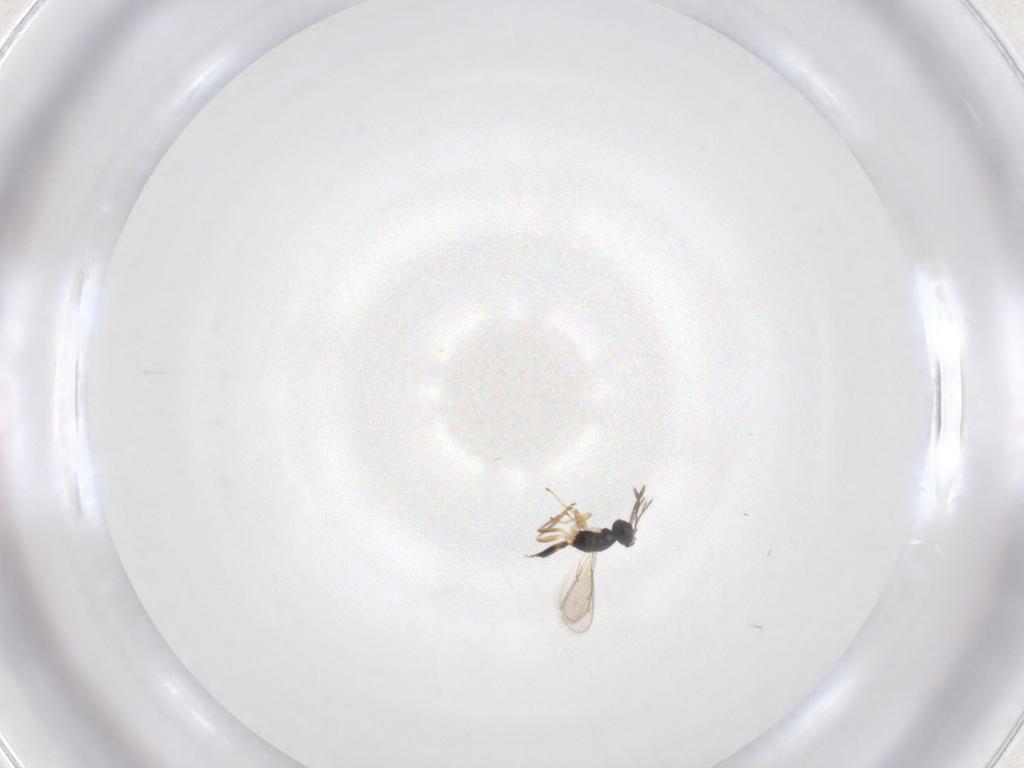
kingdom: Animalia
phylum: Arthropoda
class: Insecta
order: Hymenoptera
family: Eulophidae
